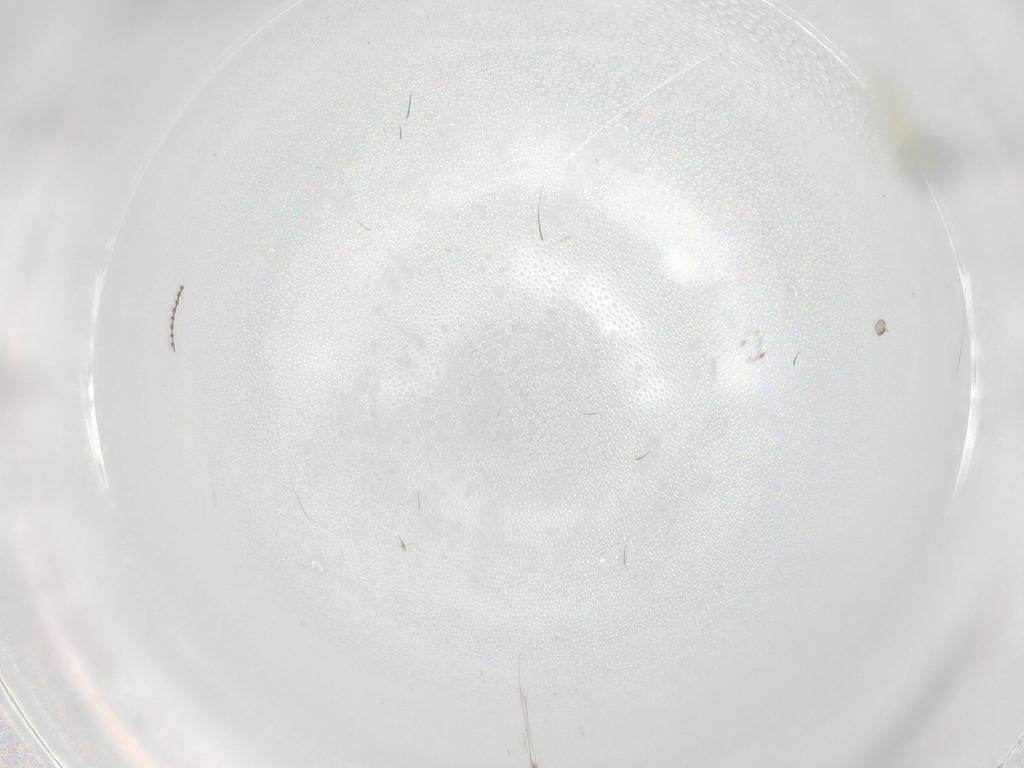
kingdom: Animalia
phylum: Arthropoda
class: Insecta
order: Diptera
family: Cecidomyiidae
